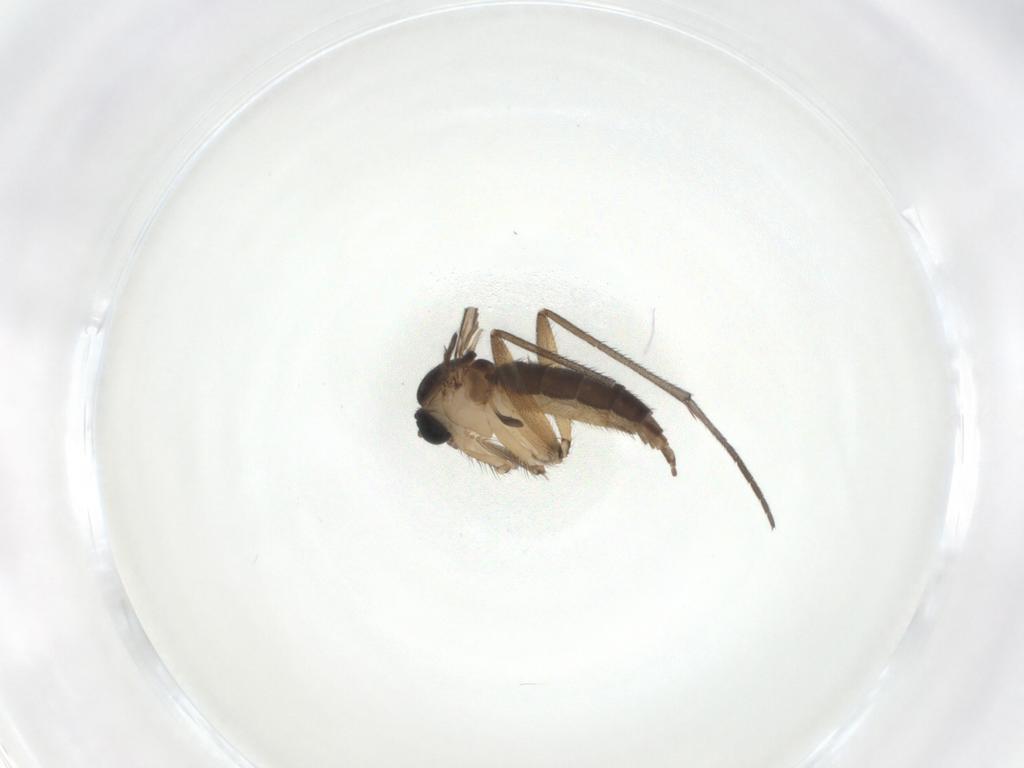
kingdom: Animalia
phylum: Arthropoda
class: Insecta
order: Diptera
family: Sciaridae
